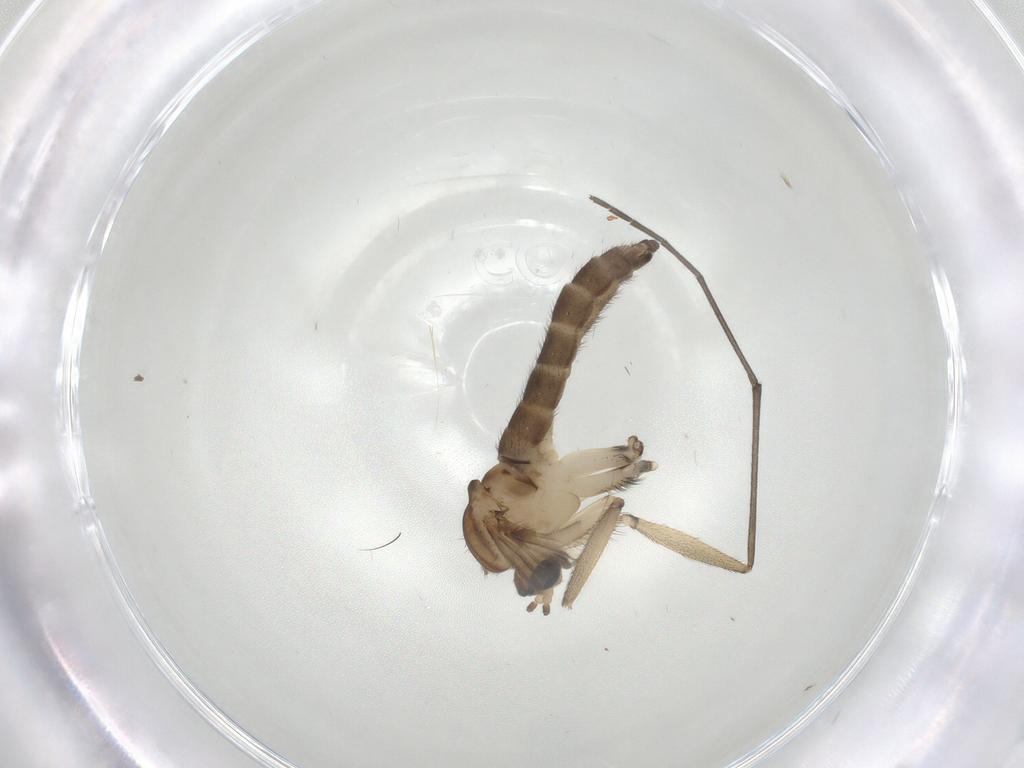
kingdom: Animalia
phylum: Arthropoda
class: Insecta
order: Diptera
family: Sciaridae
